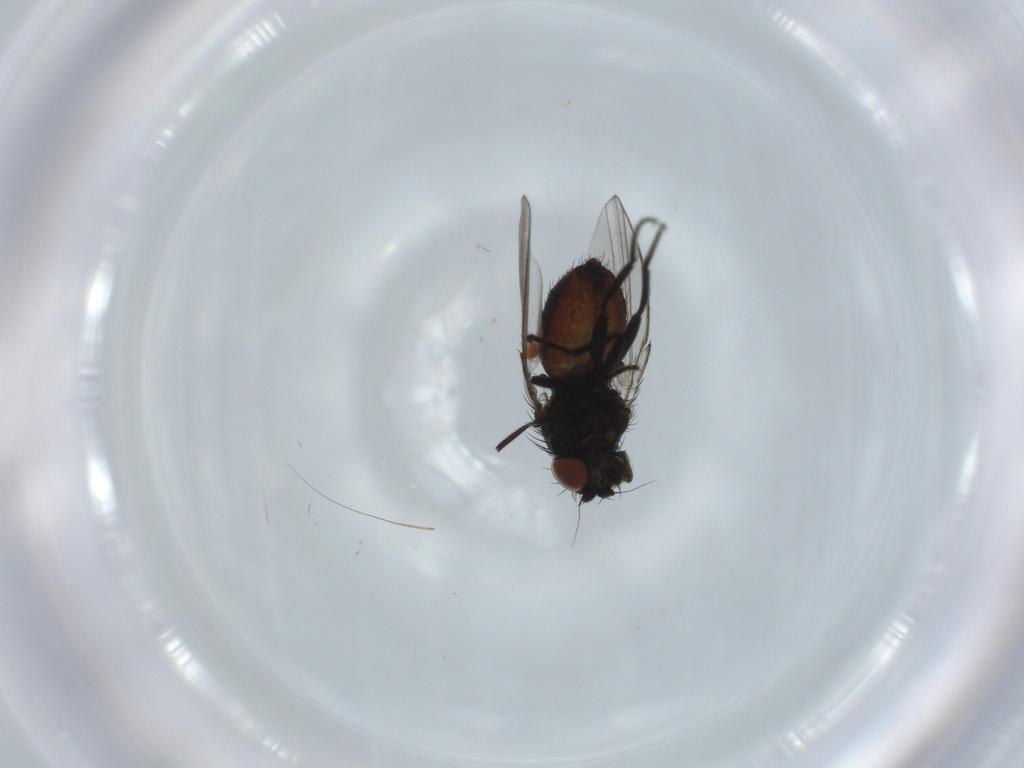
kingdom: Animalia
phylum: Arthropoda
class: Insecta
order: Diptera
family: Milichiidae
